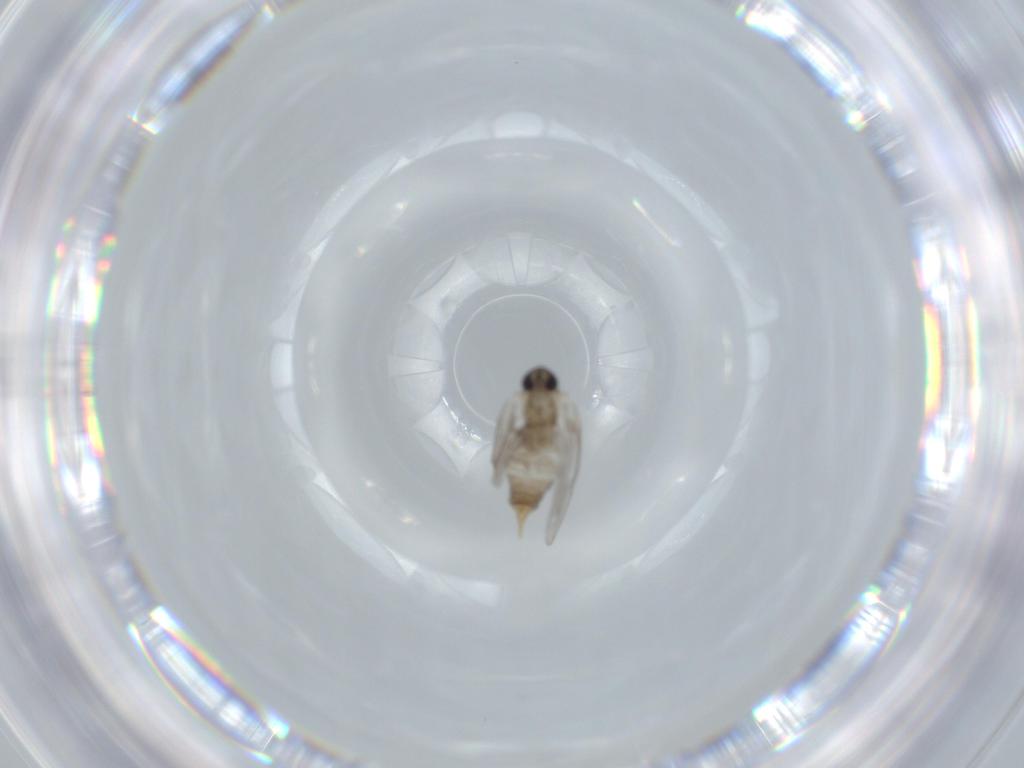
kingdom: Animalia
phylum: Arthropoda
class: Insecta
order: Diptera
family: Psychodidae
